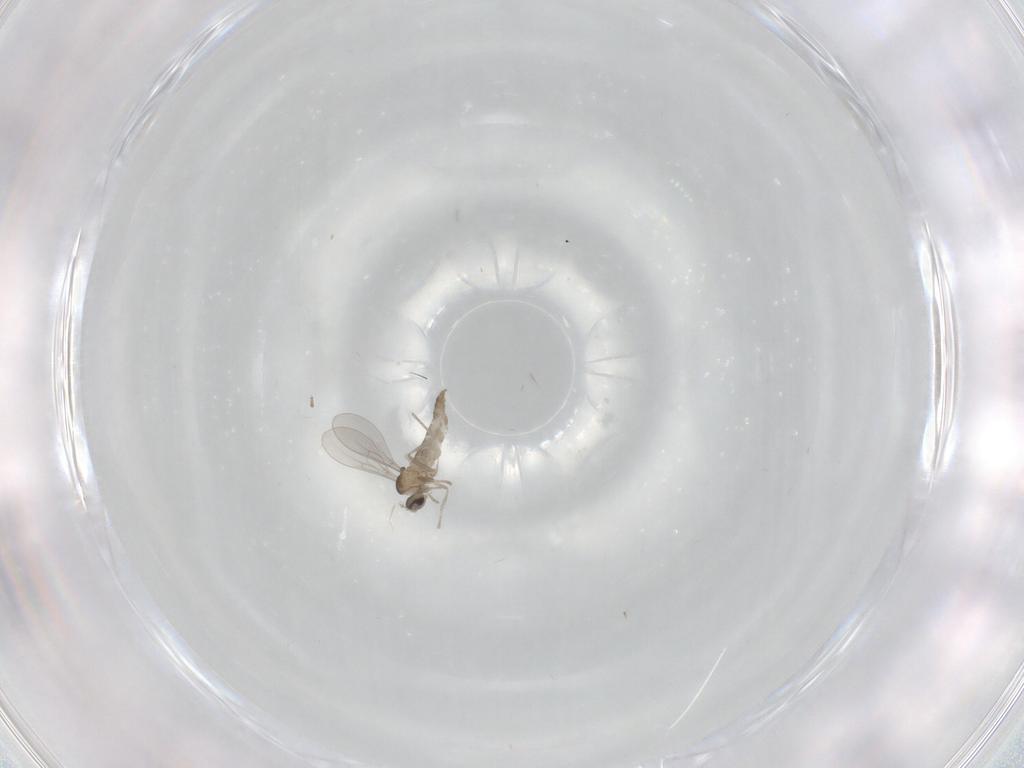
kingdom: Animalia
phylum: Arthropoda
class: Insecta
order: Diptera
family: Cecidomyiidae
